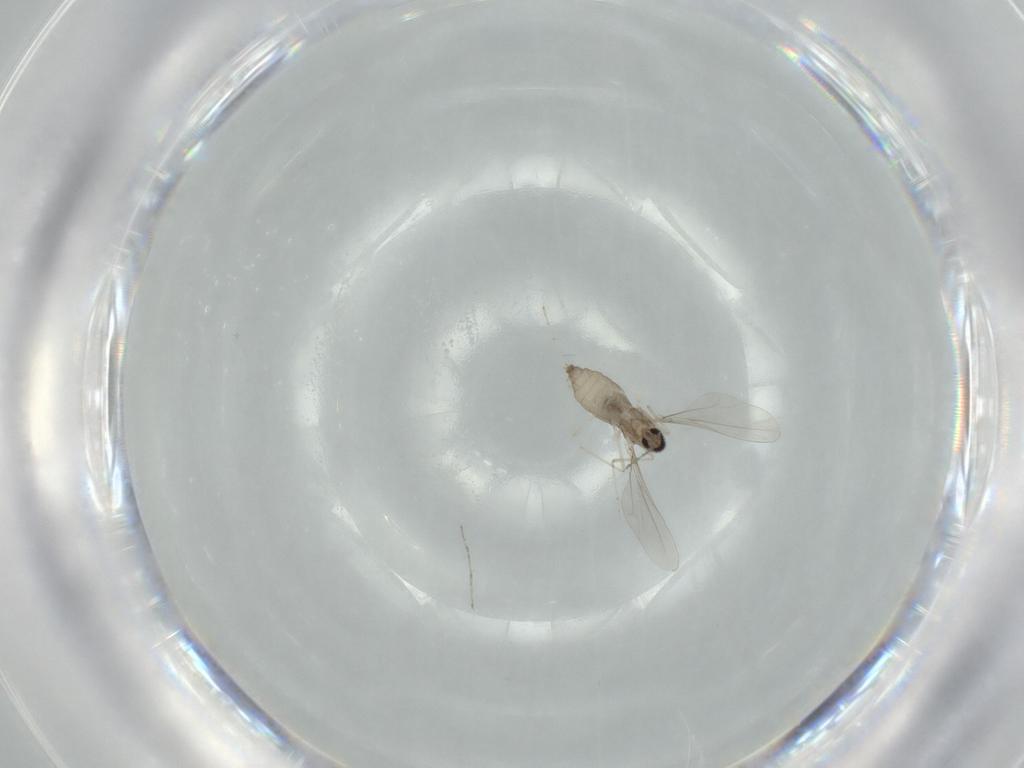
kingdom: Animalia
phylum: Arthropoda
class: Insecta
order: Diptera
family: Cecidomyiidae
